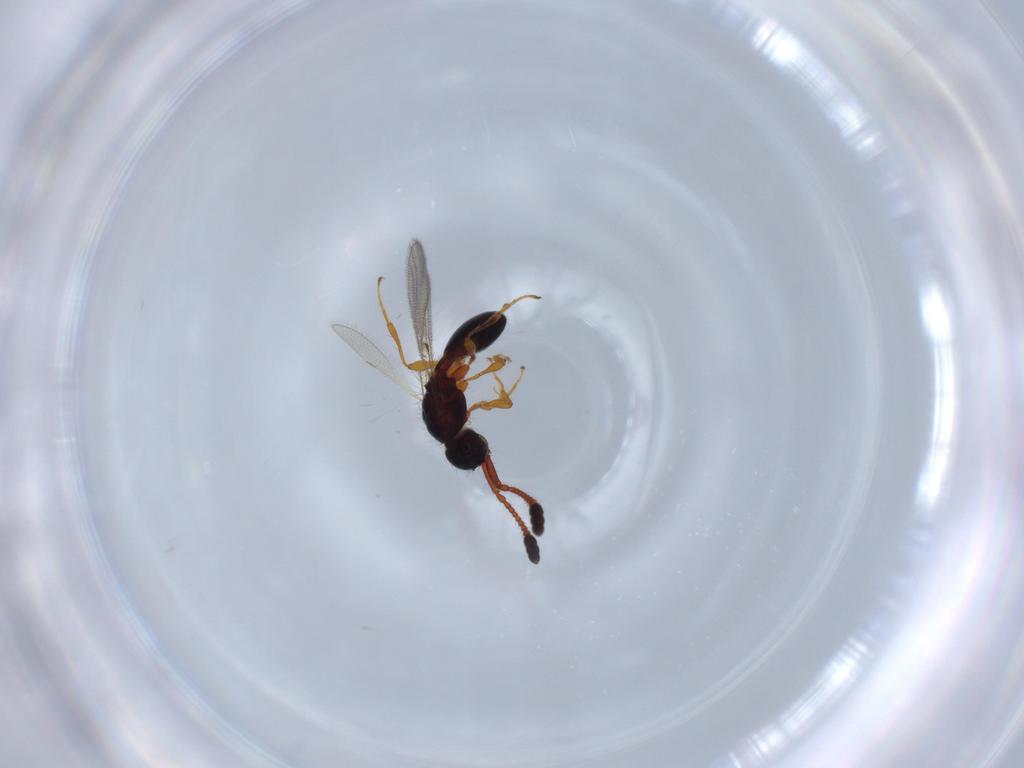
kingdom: Animalia
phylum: Arthropoda
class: Insecta
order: Hymenoptera
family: Diapriidae
